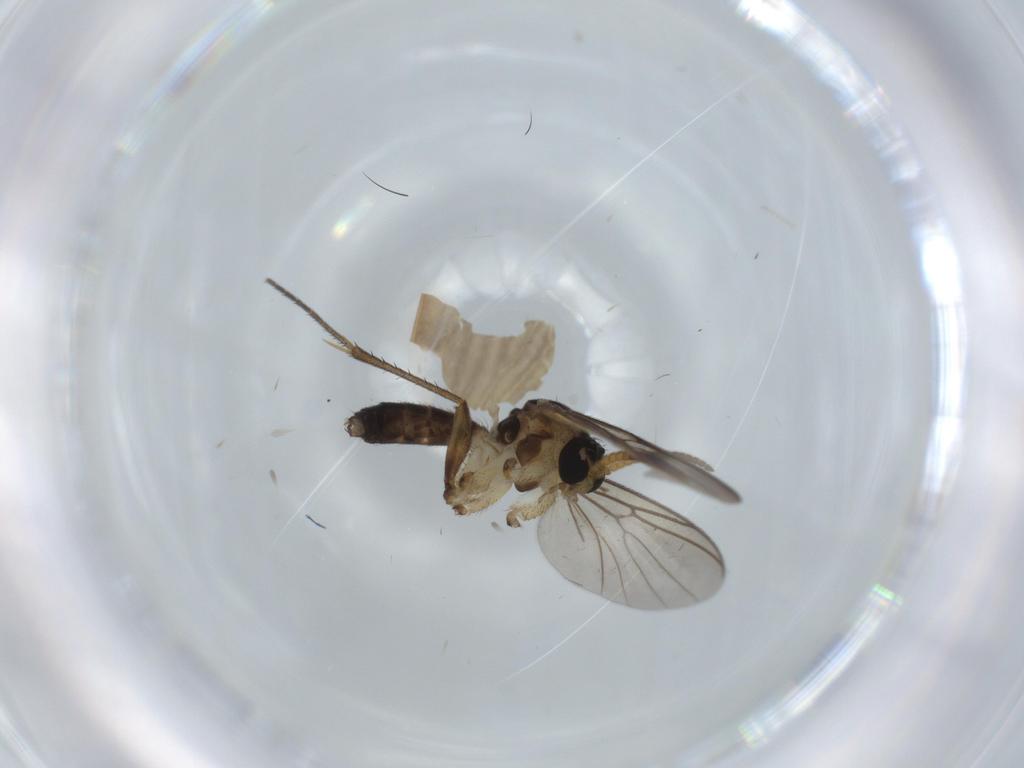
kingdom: Animalia
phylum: Arthropoda
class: Insecta
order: Diptera
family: Mycetophilidae
